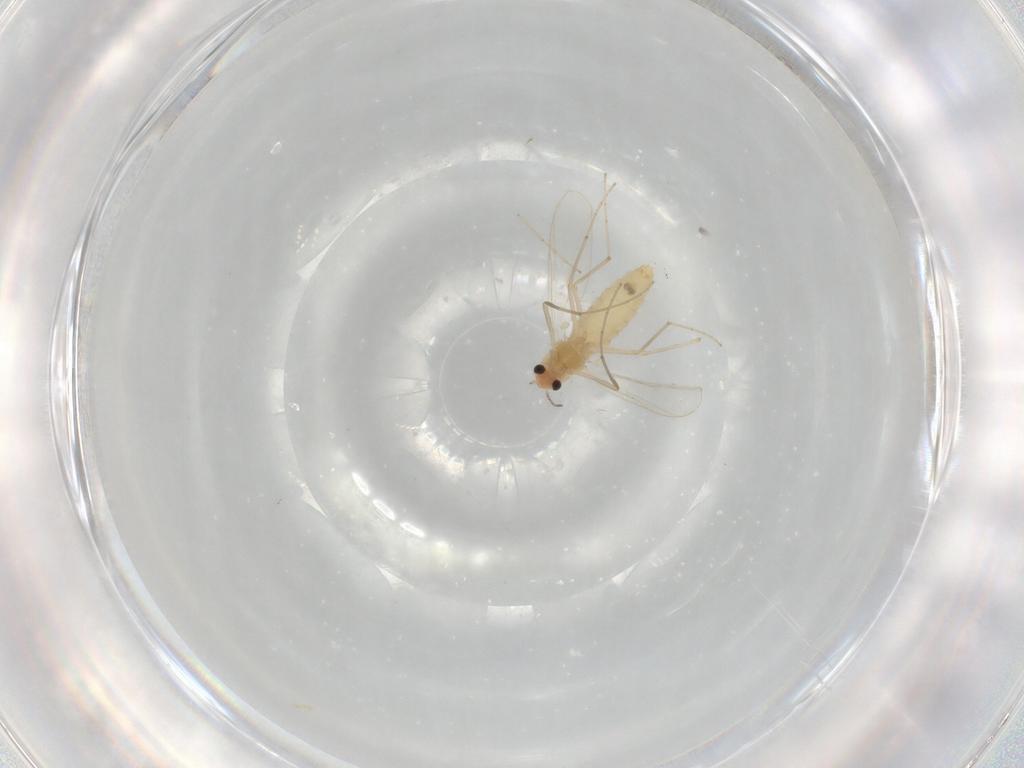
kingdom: Animalia
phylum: Arthropoda
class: Insecta
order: Diptera
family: Chironomidae
